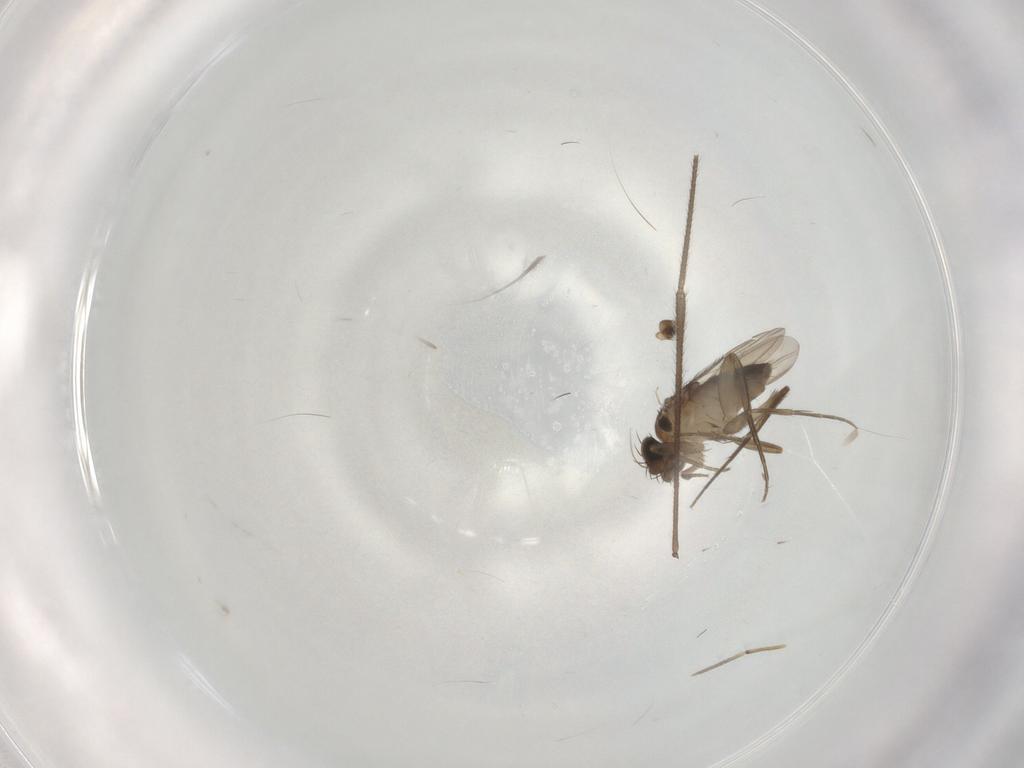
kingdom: Animalia
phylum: Arthropoda
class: Insecta
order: Diptera
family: Phoridae
